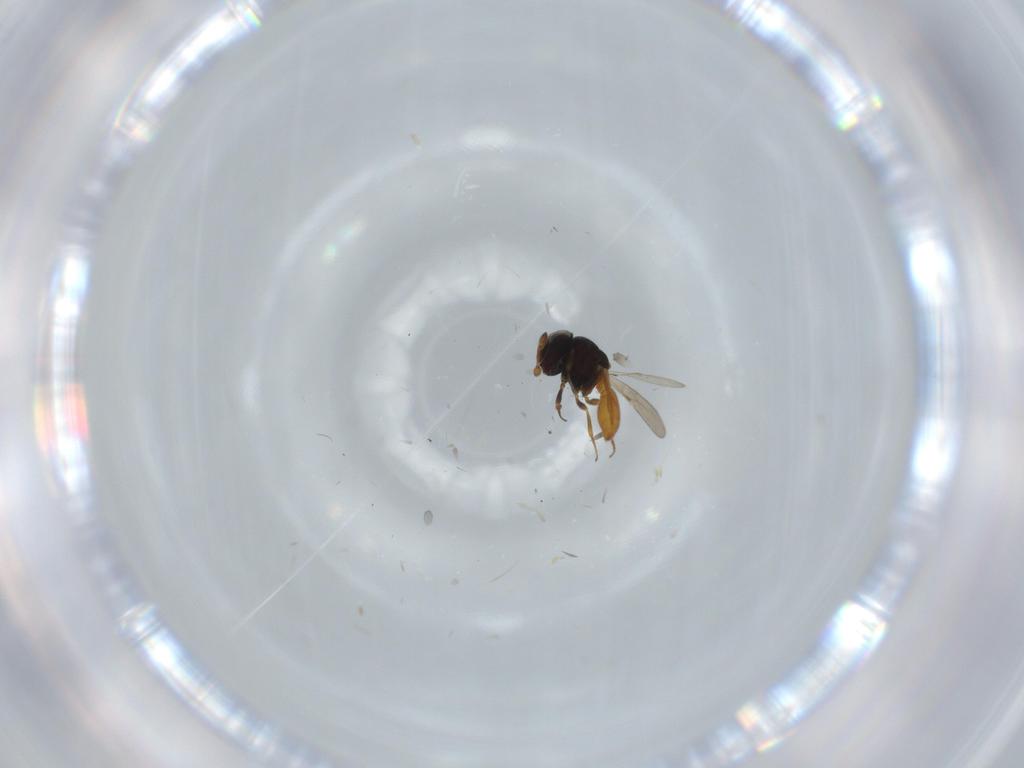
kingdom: Animalia
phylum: Arthropoda
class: Insecta
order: Hymenoptera
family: Scelionidae
